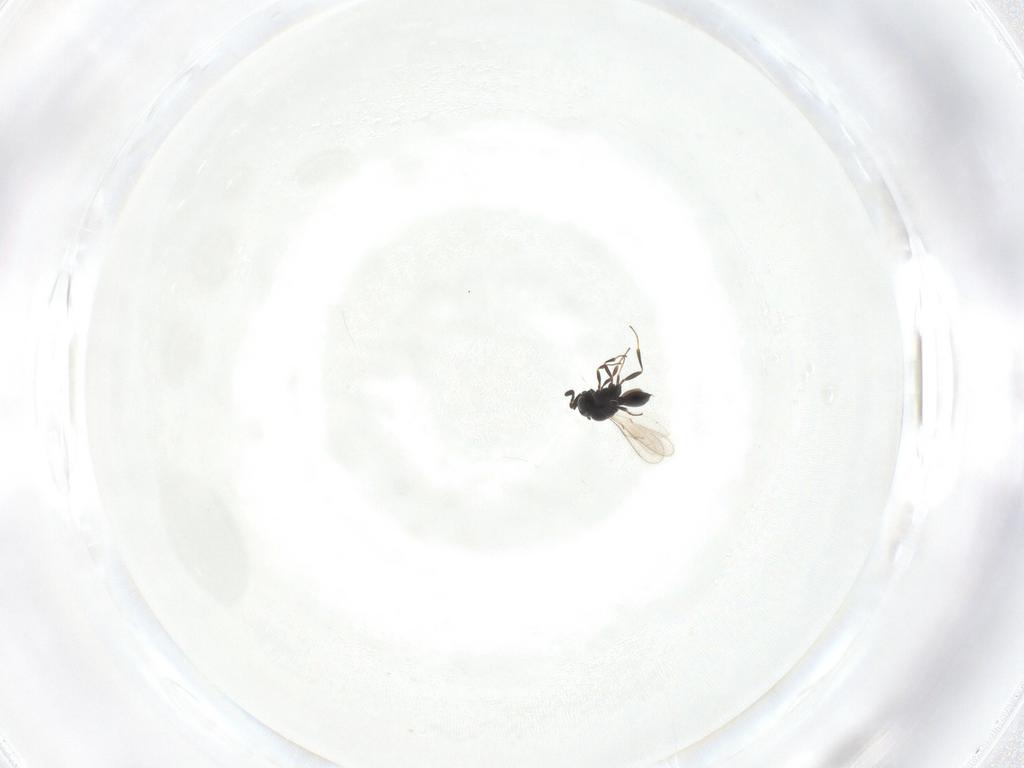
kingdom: Animalia
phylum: Arthropoda
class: Insecta
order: Hymenoptera
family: Scelionidae
